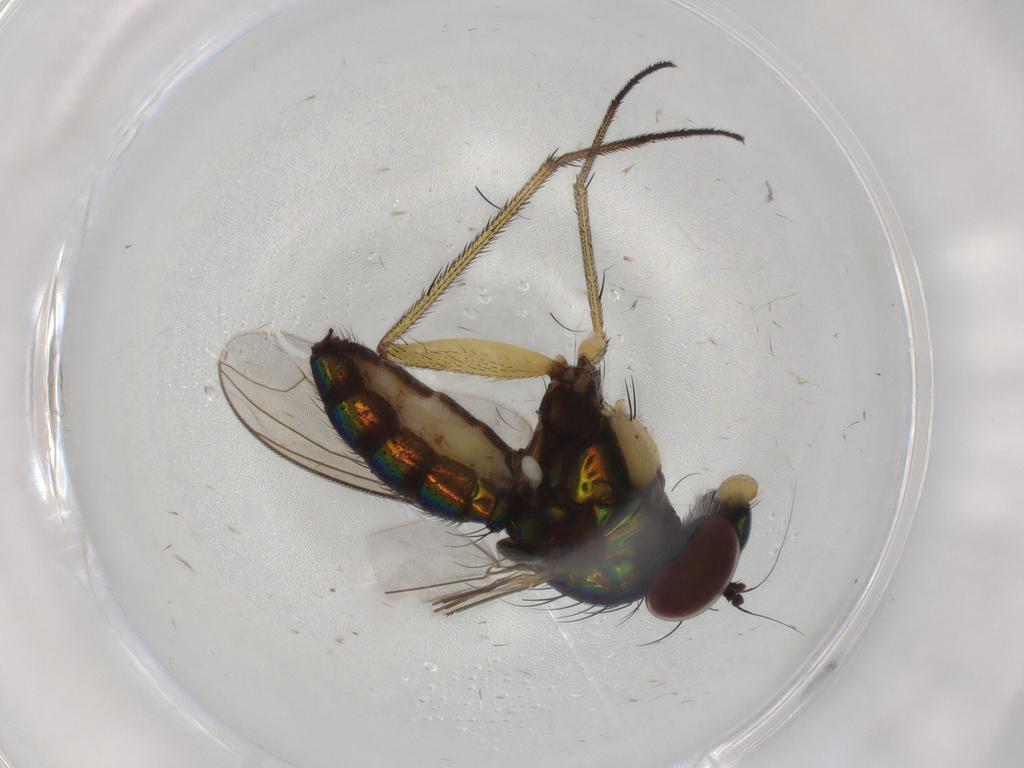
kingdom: Animalia
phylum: Arthropoda
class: Insecta
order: Diptera
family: Dolichopodidae
